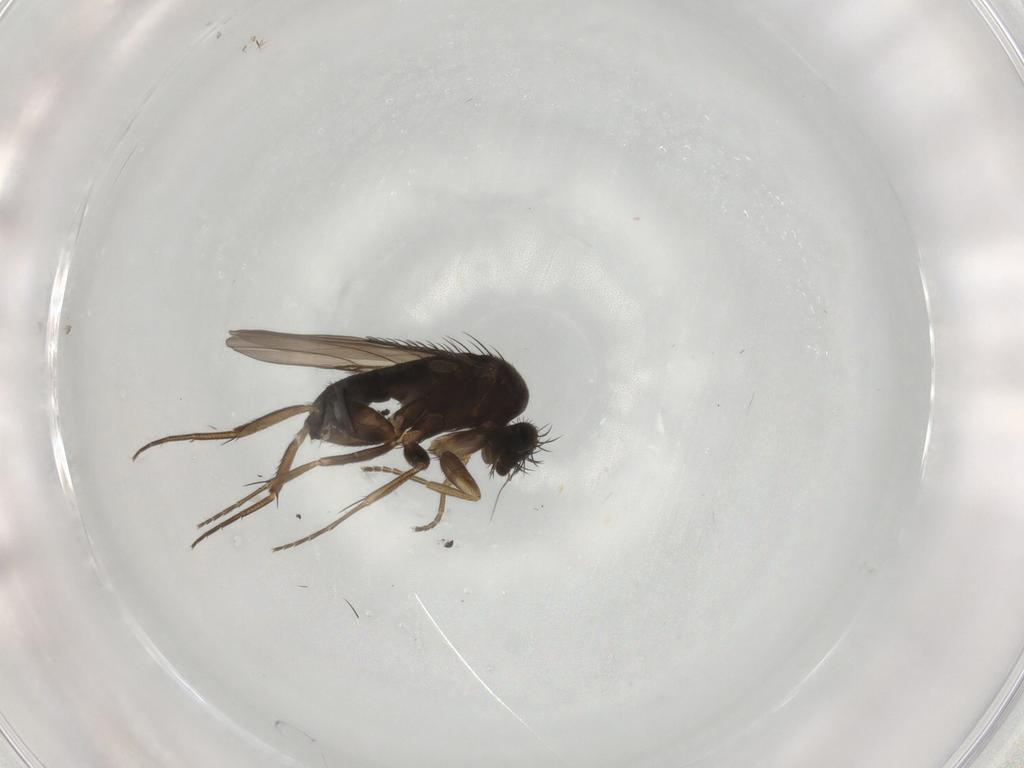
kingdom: Animalia
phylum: Arthropoda
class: Insecta
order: Diptera
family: Phoridae
